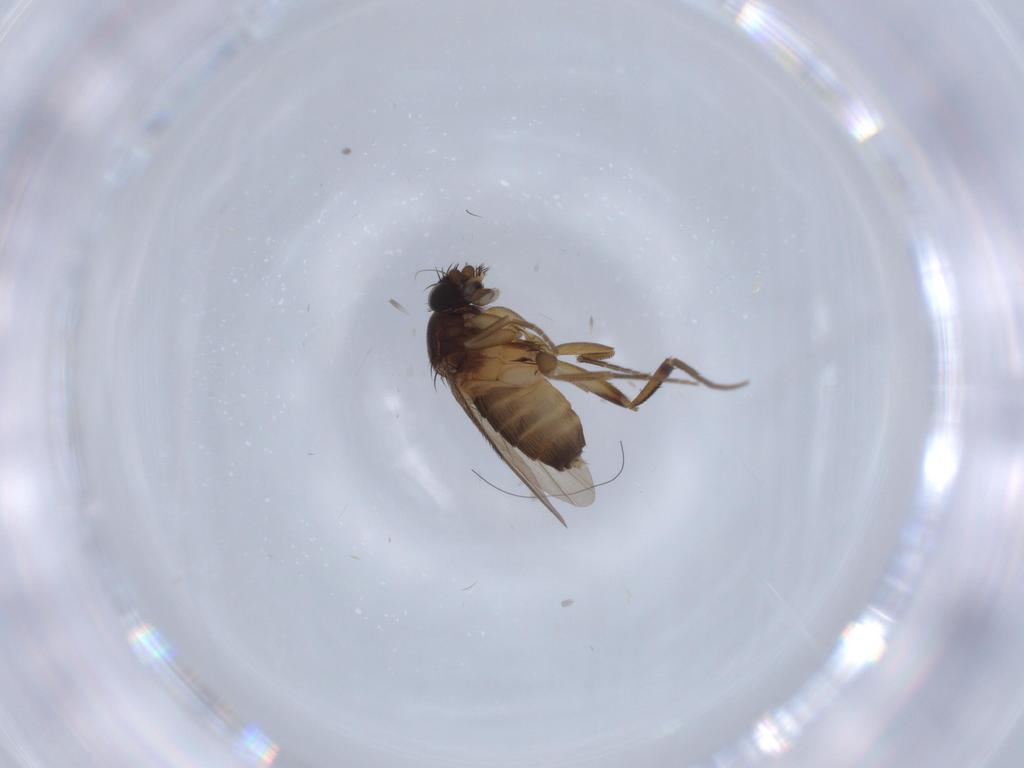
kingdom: Animalia
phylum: Arthropoda
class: Insecta
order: Diptera
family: Phoridae
